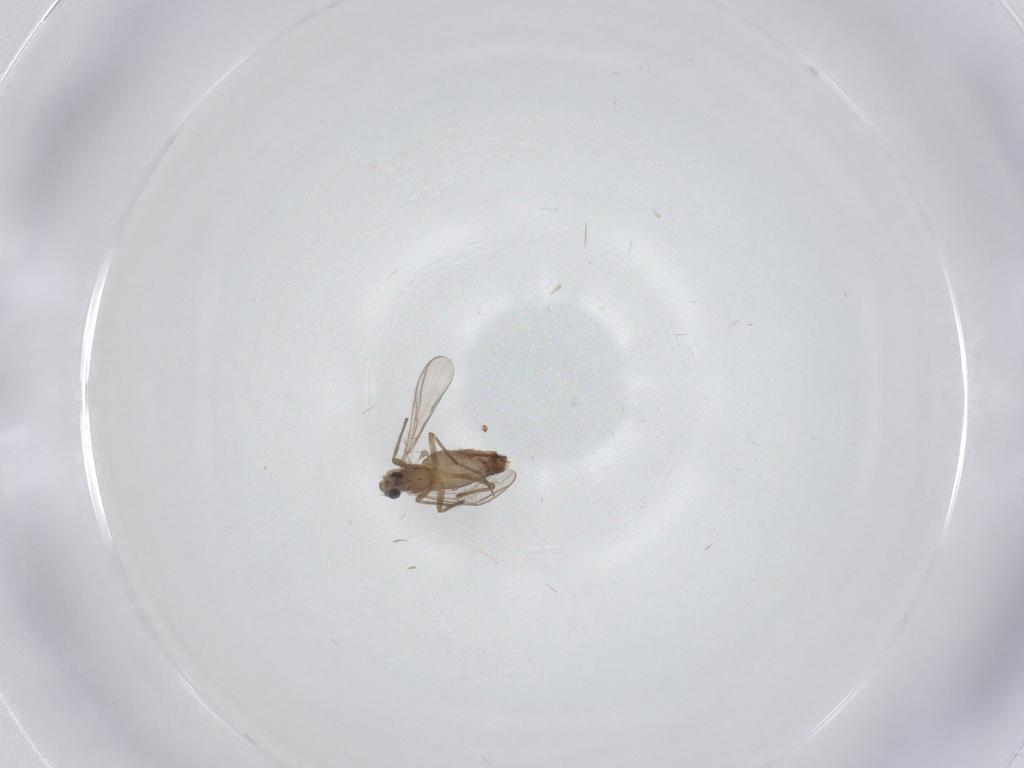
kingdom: Animalia
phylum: Arthropoda
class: Insecta
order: Diptera
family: Chironomidae
